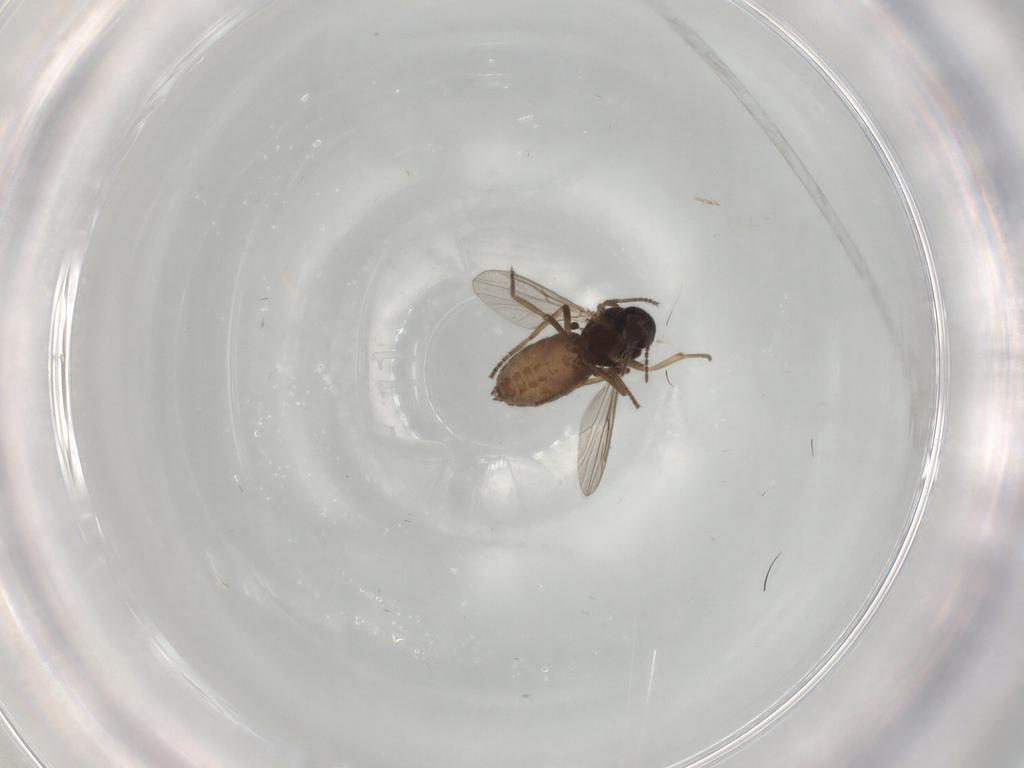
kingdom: Animalia
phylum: Arthropoda
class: Insecta
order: Diptera
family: Ceratopogonidae
